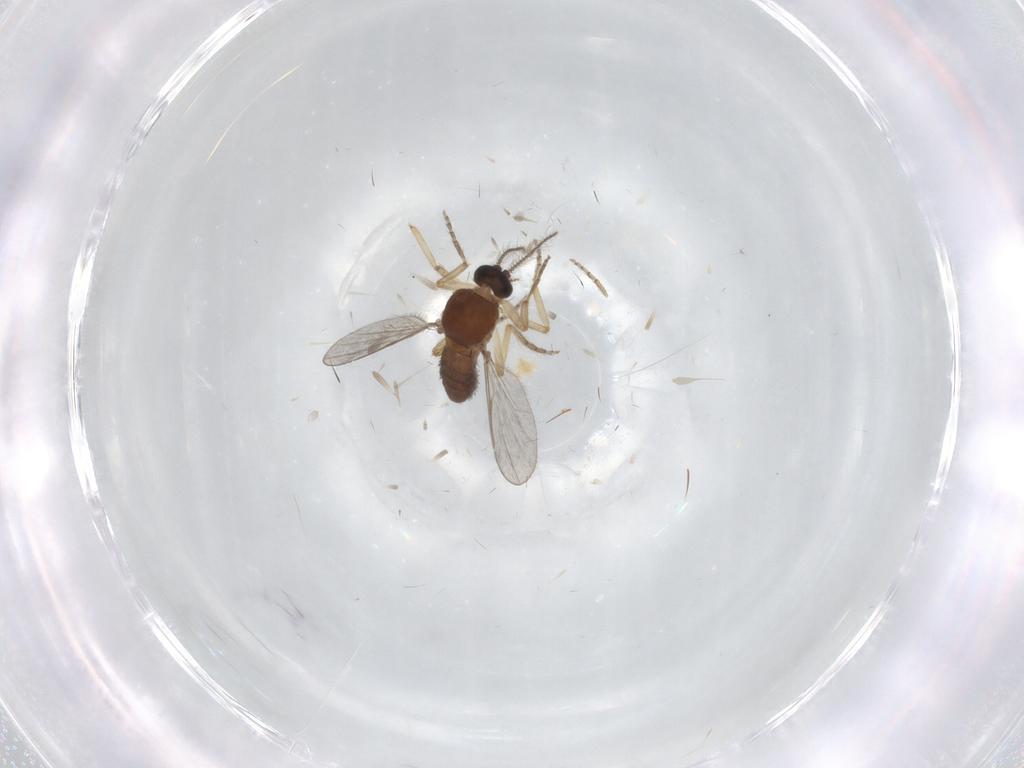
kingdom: Animalia
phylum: Arthropoda
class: Insecta
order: Diptera
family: Ceratopogonidae
